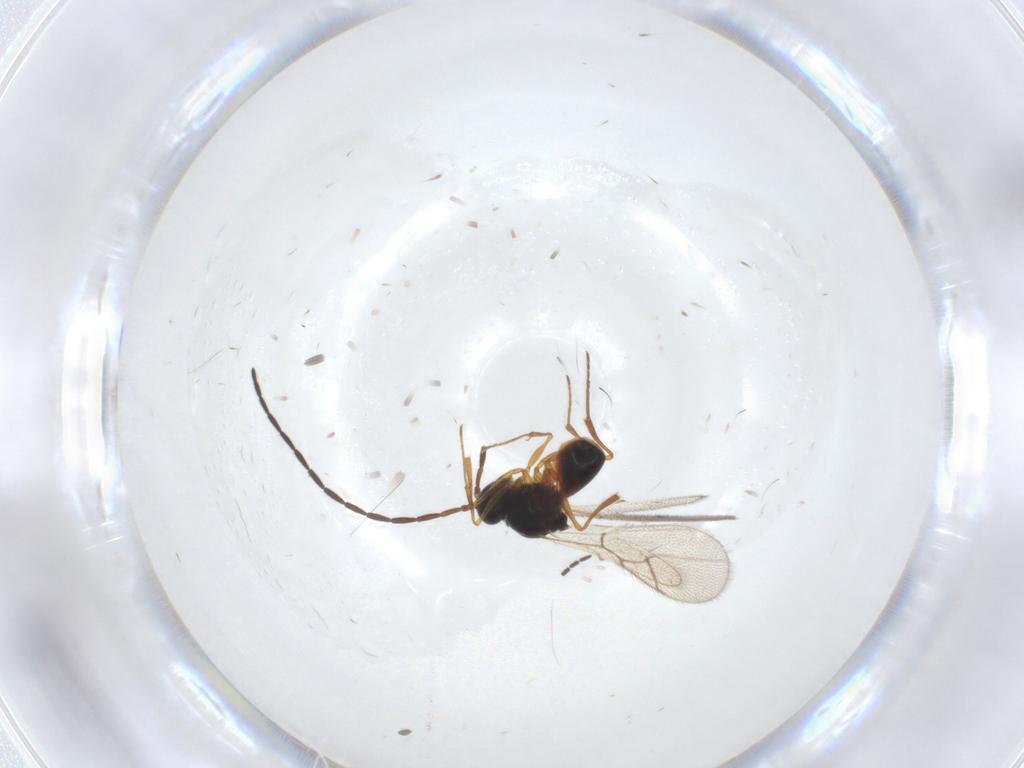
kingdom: Animalia
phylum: Arthropoda
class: Insecta
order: Hymenoptera
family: Figitidae
